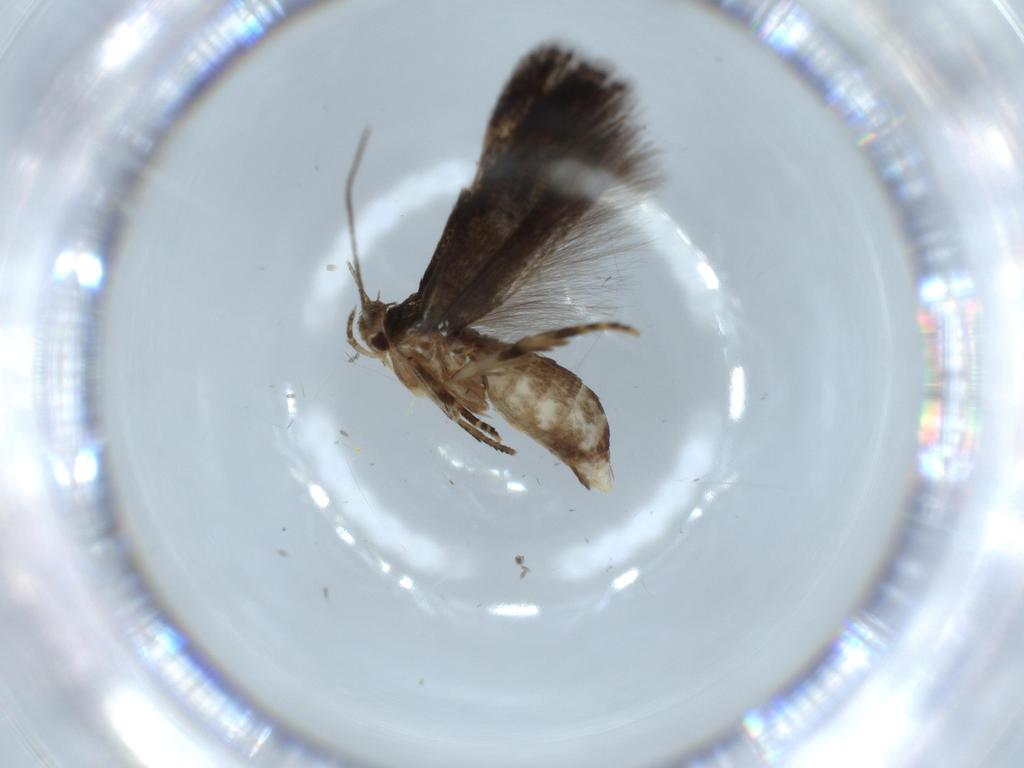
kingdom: Animalia
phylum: Arthropoda
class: Insecta
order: Lepidoptera
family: Gelechiidae
